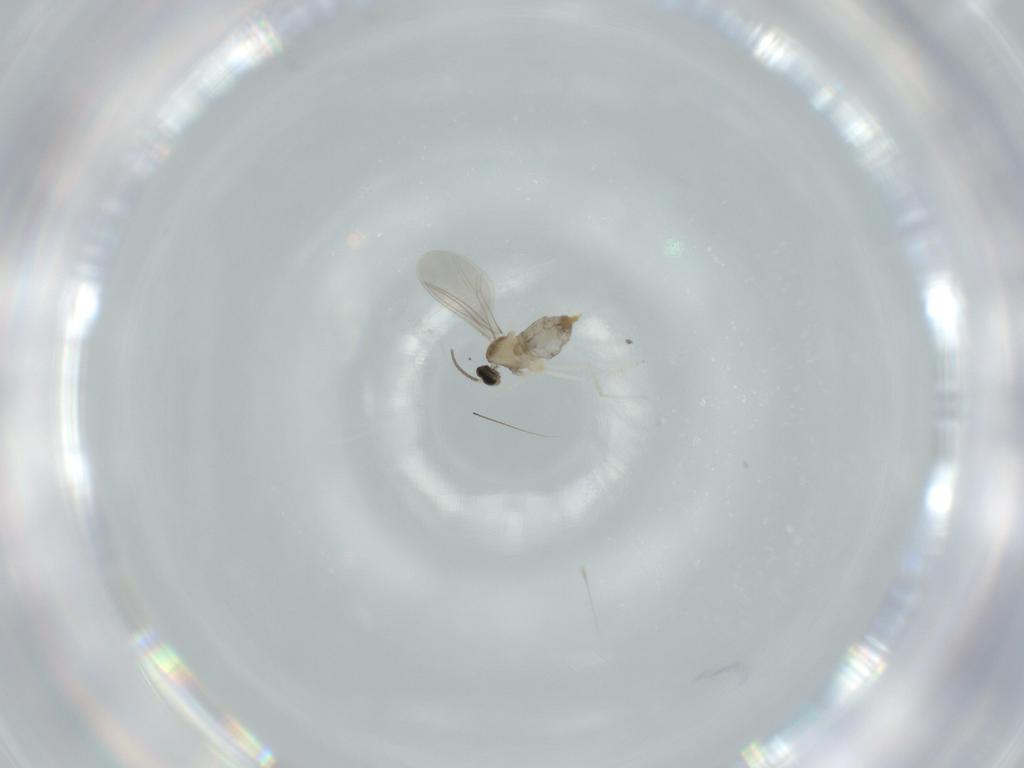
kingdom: Animalia
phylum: Arthropoda
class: Insecta
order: Diptera
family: Cecidomyiidae
